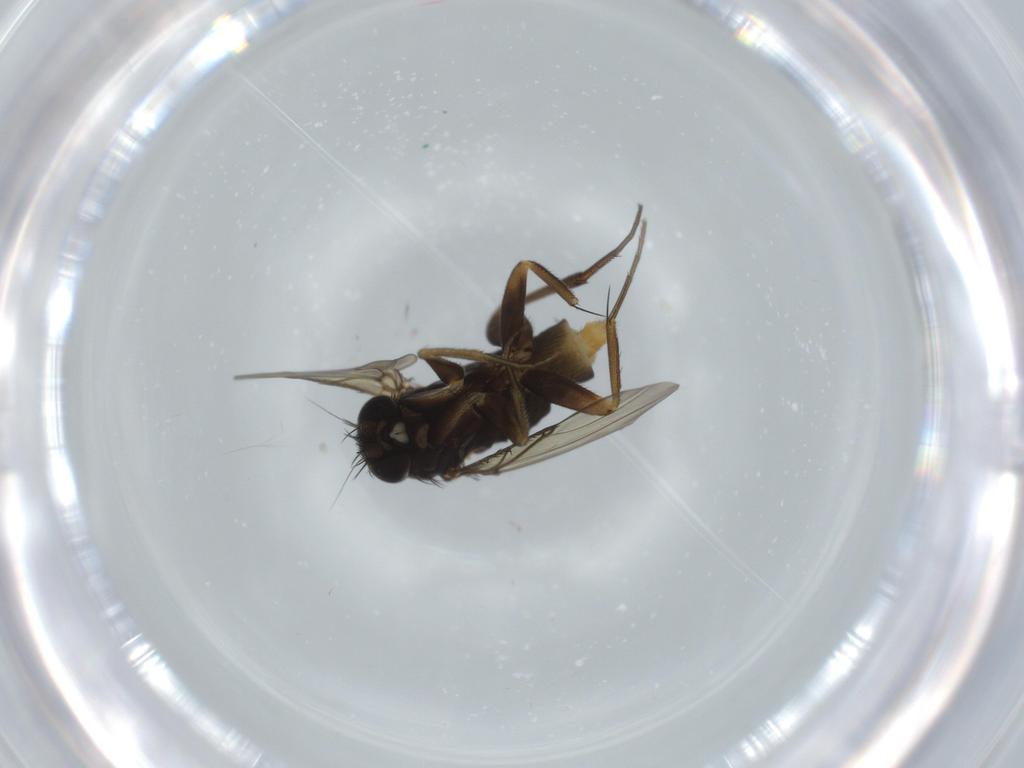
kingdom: Animalia
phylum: Arthropoda
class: Insecta
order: Diptera
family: Phoridae
